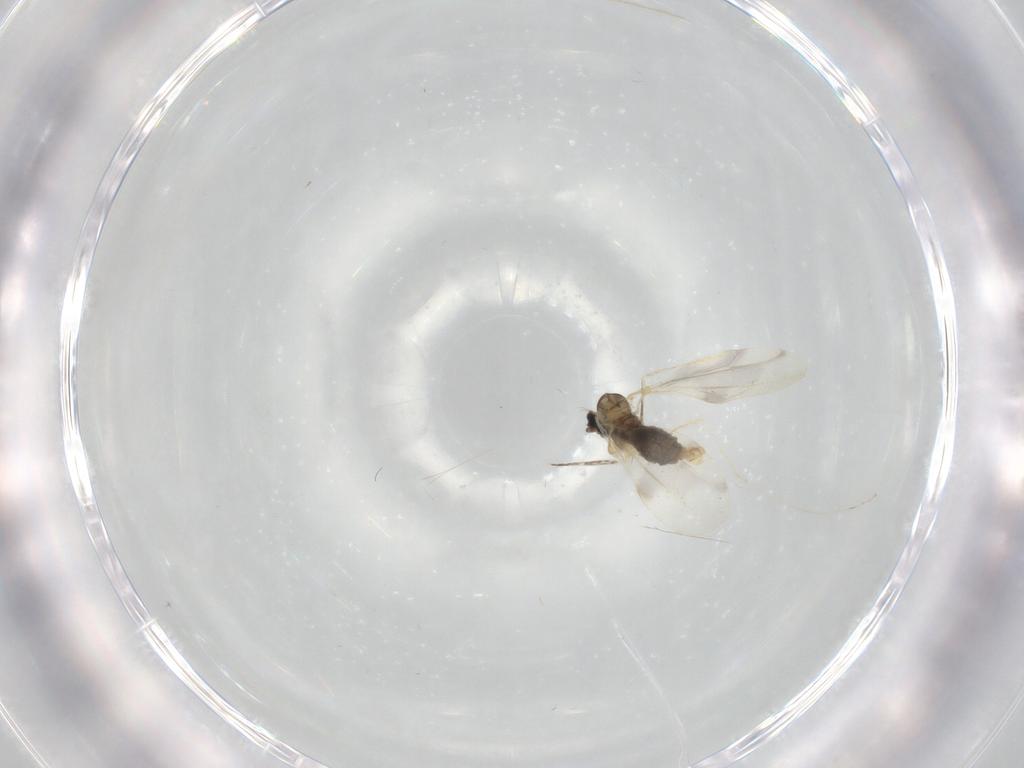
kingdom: Animalia
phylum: Arthropoda
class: Insecta
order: Diptera
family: Cecidomyiidae
